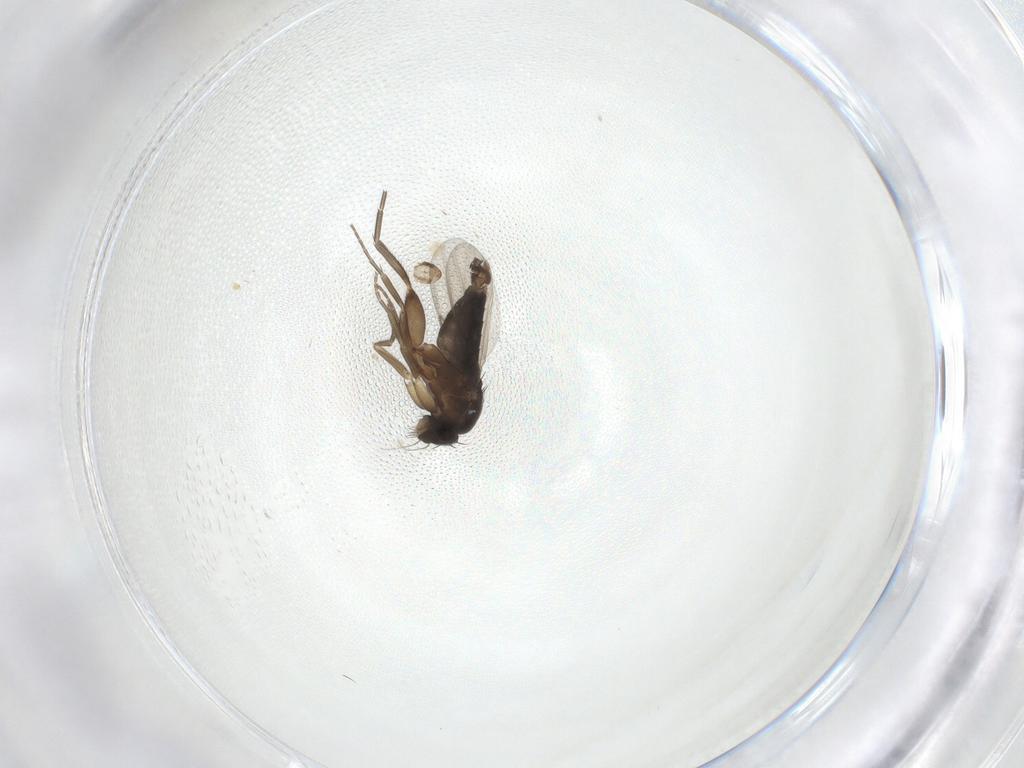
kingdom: Animalia
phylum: Arthropoda
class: Insecta
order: Diptera
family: Phoridae
